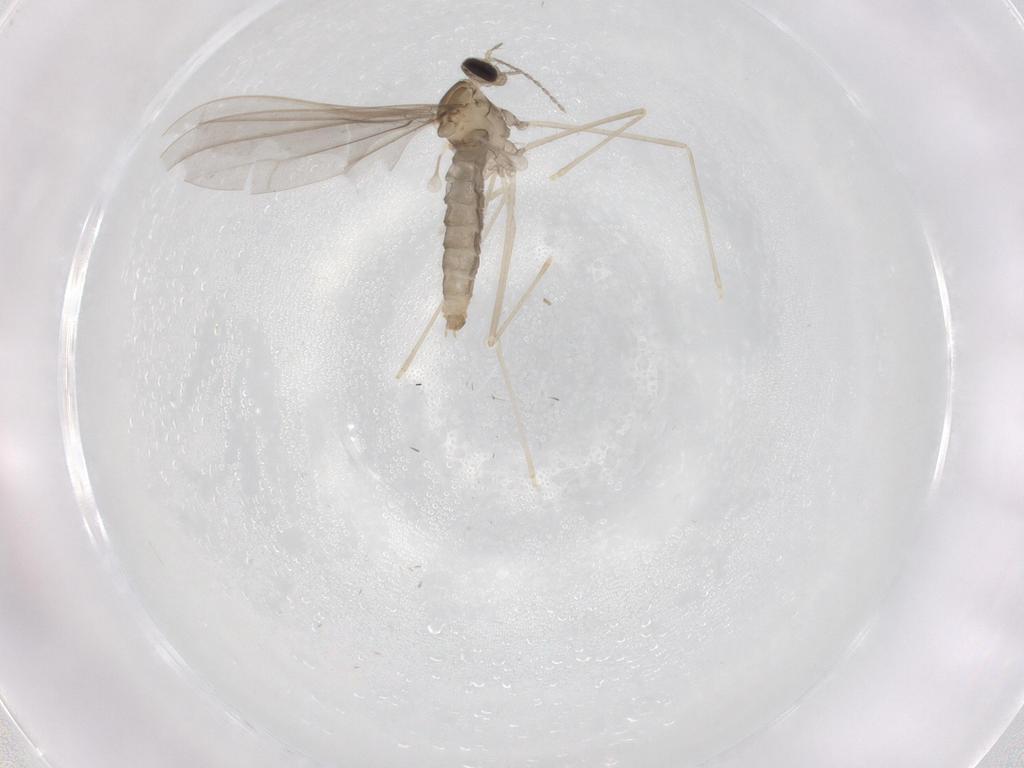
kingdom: Animalia
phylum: Arthropoda
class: Insecta
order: Diptera
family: Cecidomyiidae
